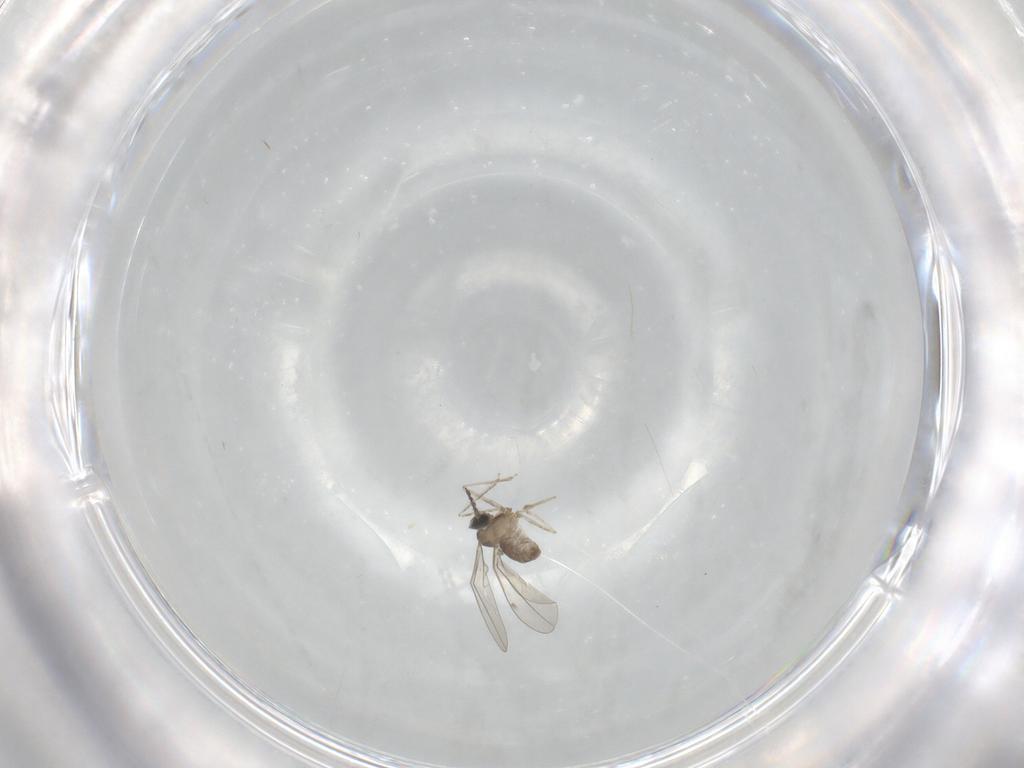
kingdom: Animalia
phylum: Arthropoda
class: Insecta
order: Diptera
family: Cecidomyiidae
